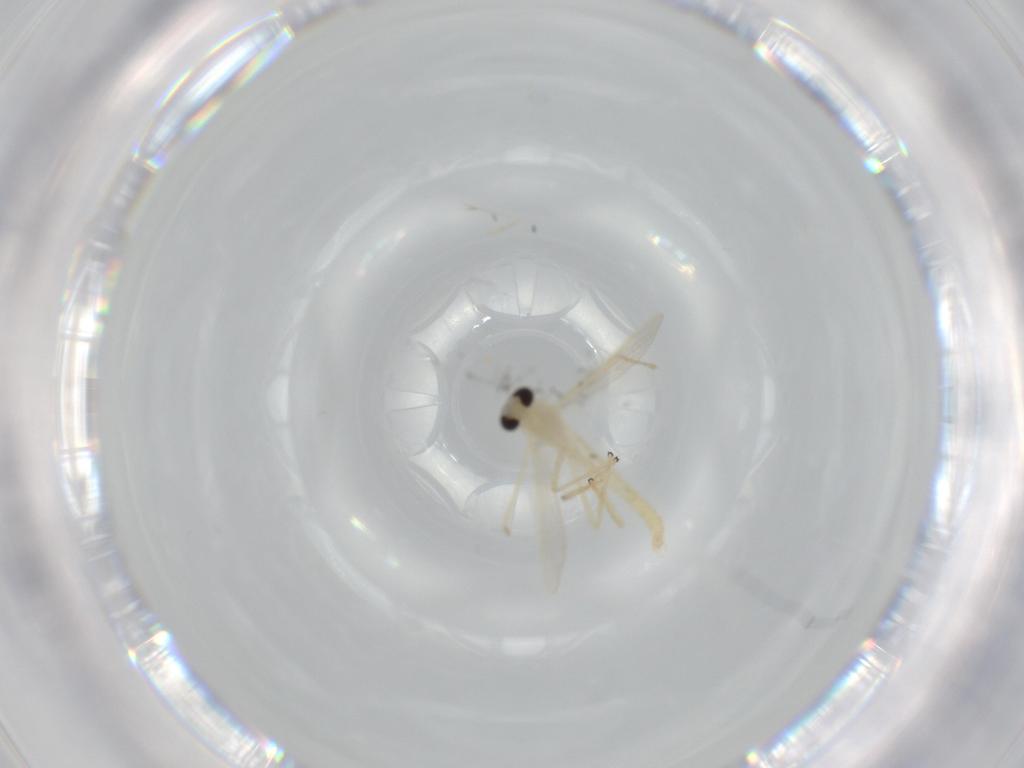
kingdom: Animalia
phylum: Arthropoda
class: Insecta
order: Diptera
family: Chironomidae
